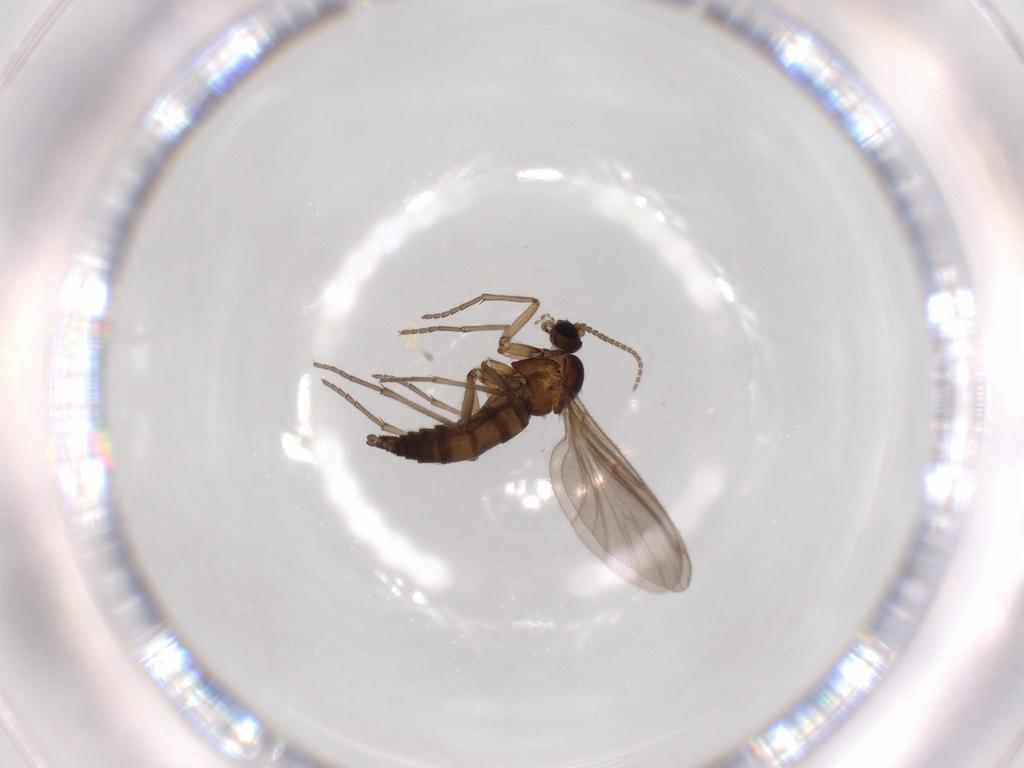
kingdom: Animalia
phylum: Arthropoda
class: Insecta
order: Diptera
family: Sciaridae
